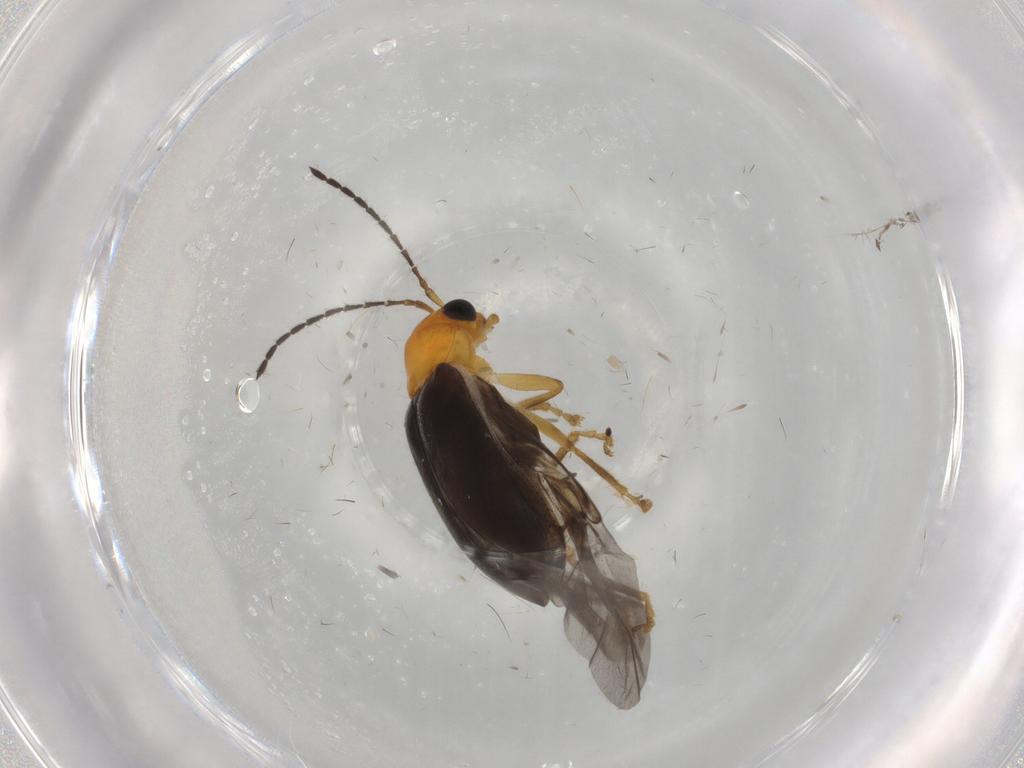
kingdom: Animalia
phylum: Arthropoda
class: Insecta
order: Coleoptera
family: Chrysomelidae
